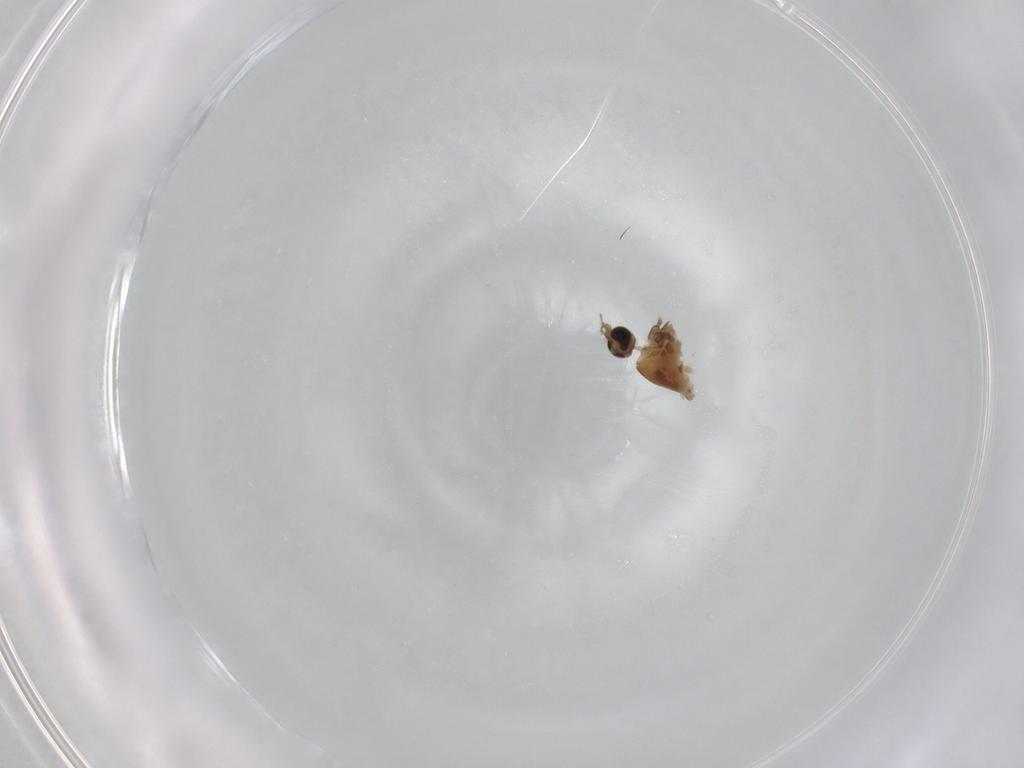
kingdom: Animalia
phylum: Arthropoda
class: Insecta
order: Diptera
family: Chironomidae
